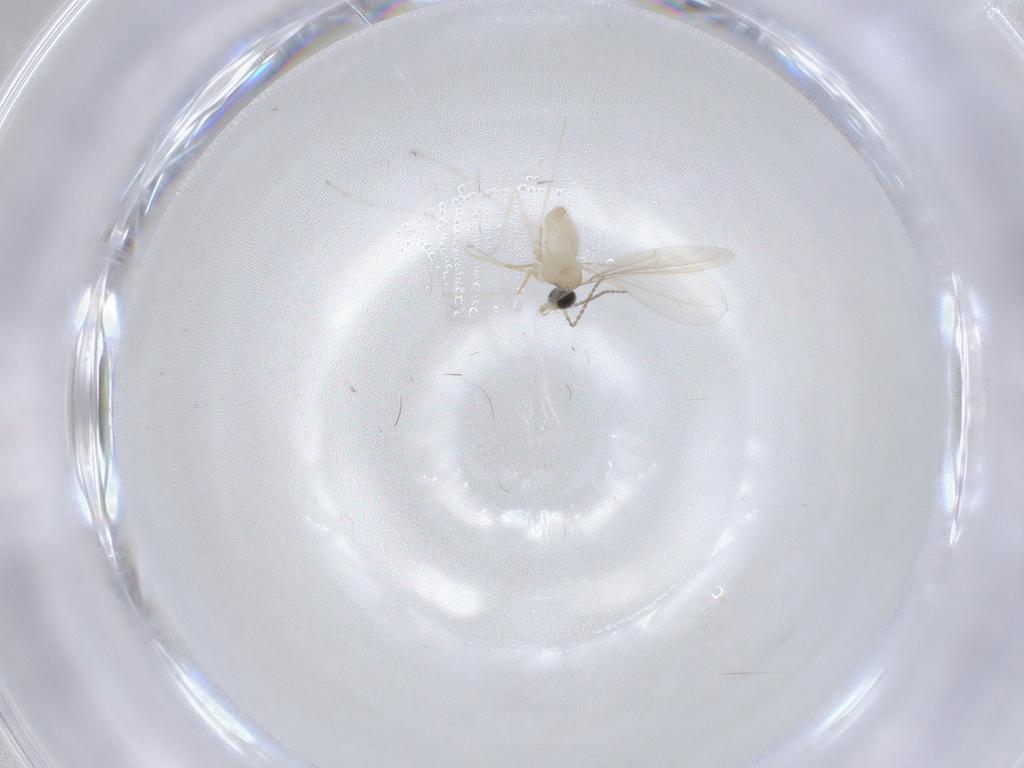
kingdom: Animalia
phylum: Arthropoda
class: Insecta
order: Diptera
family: Cecidomyiidae
